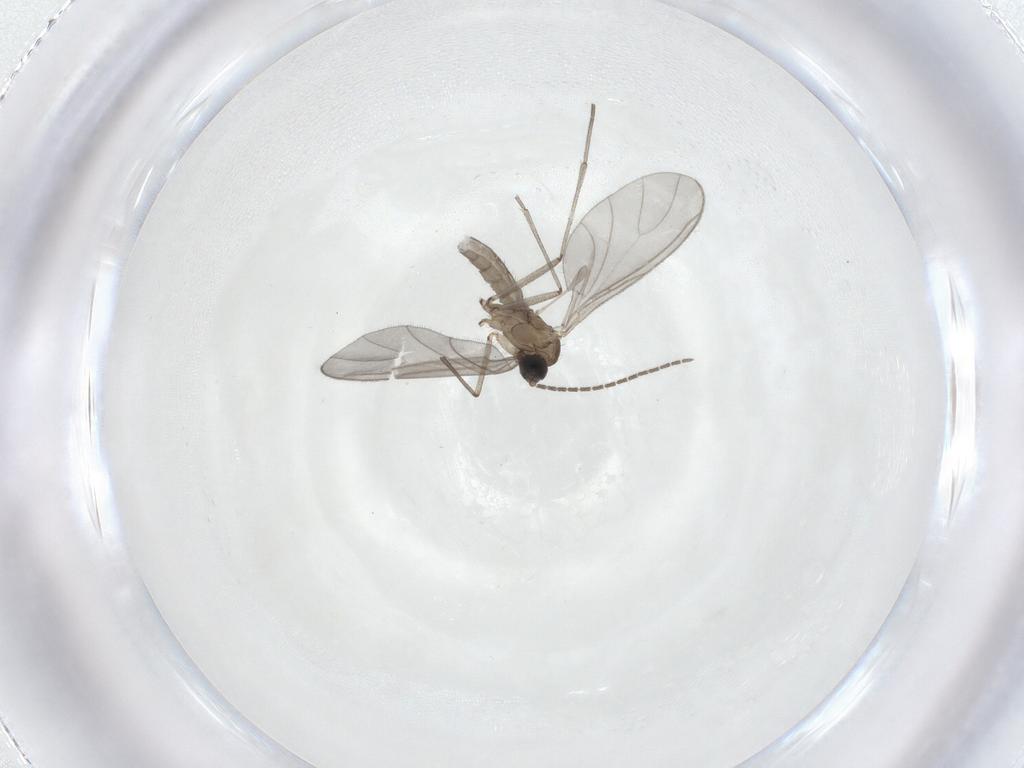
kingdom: Animalia
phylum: Arthropoda
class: Insecta
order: Diptera
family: Sciaridae
